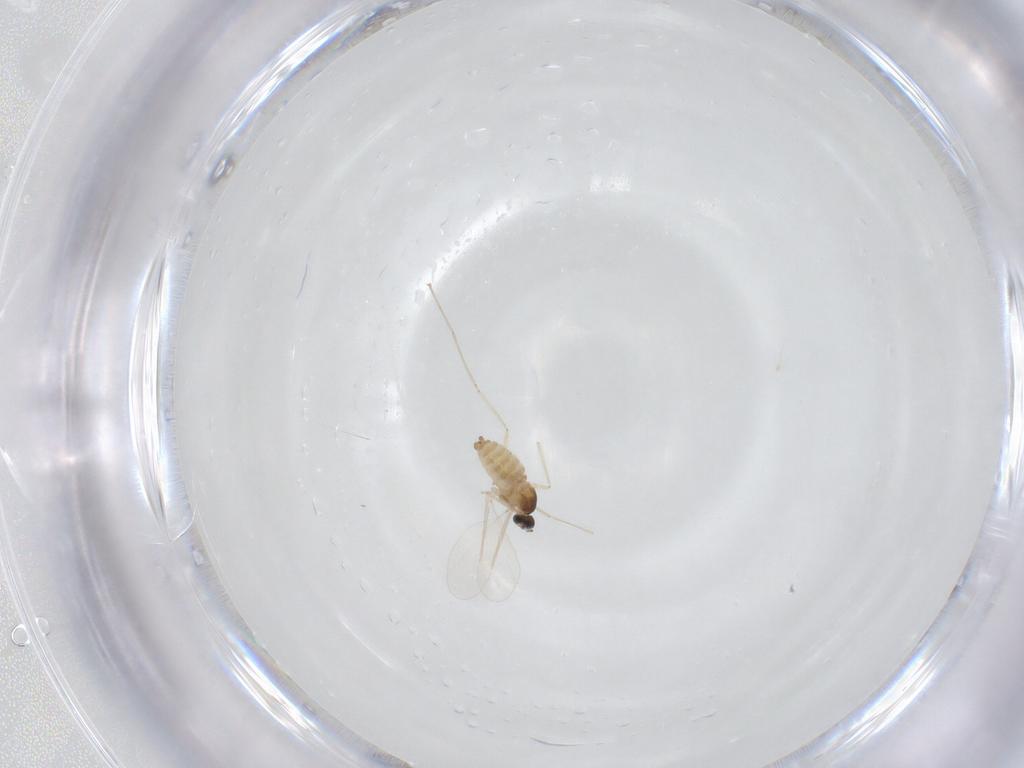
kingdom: Animalia
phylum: Arthropoda
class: Insecta
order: Diptera
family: Cecidomyiidae
